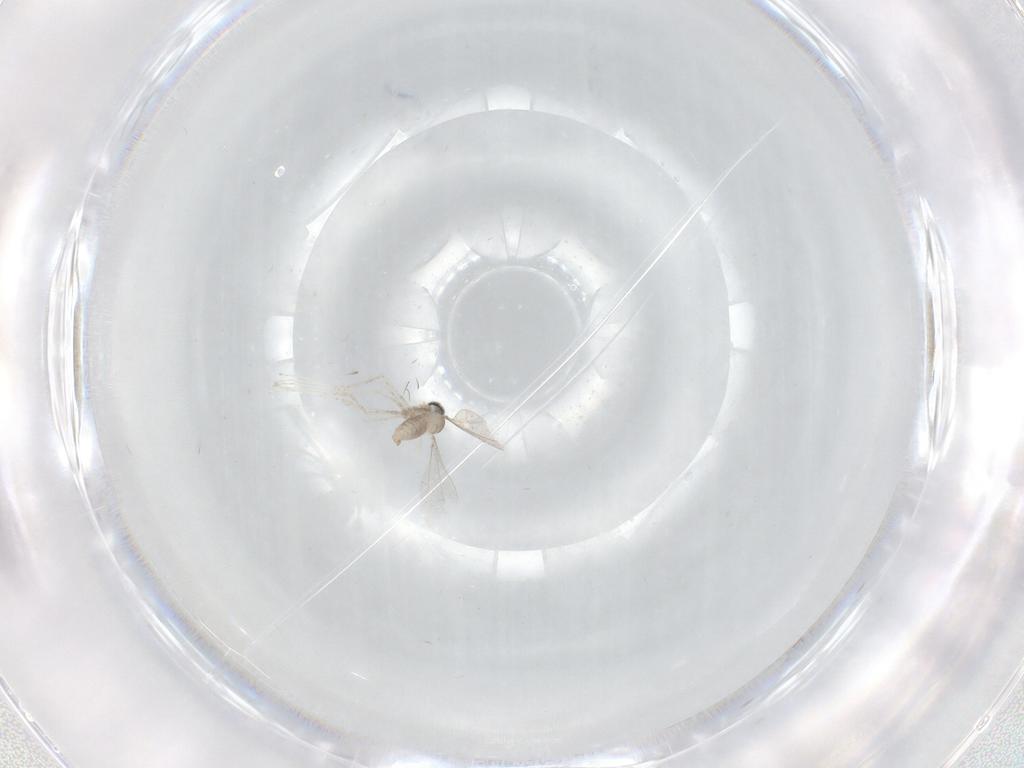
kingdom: Animalia
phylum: Arthropoda
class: Insecta
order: Diptera
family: Cecidomyiidae
